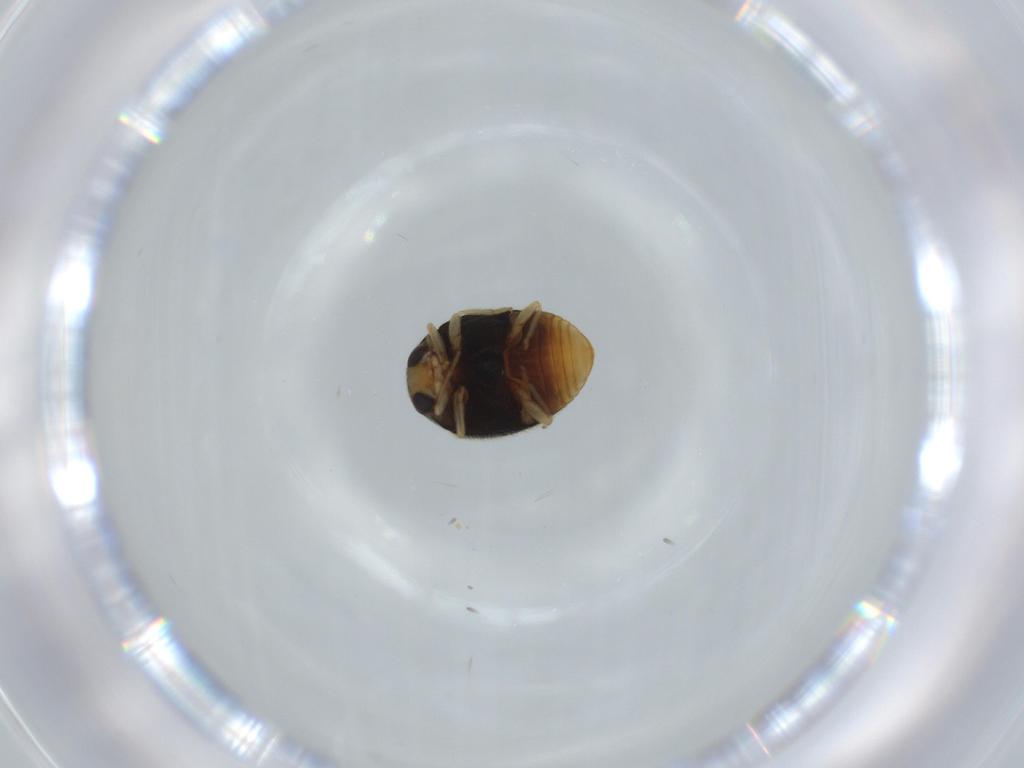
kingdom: Animalia
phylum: Arthropoda
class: Insecta
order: Coleoptera
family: Coccinellidae
